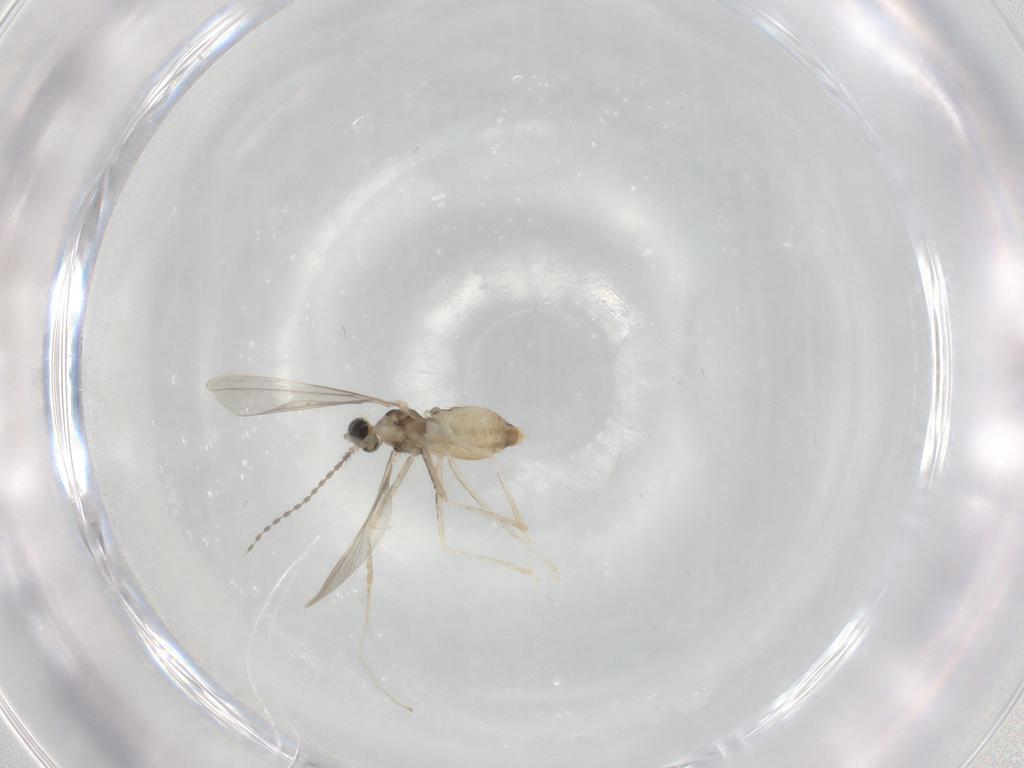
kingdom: Animalia
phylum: Arthropoda
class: Insecta
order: Diptera
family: Cecidomyiidae
